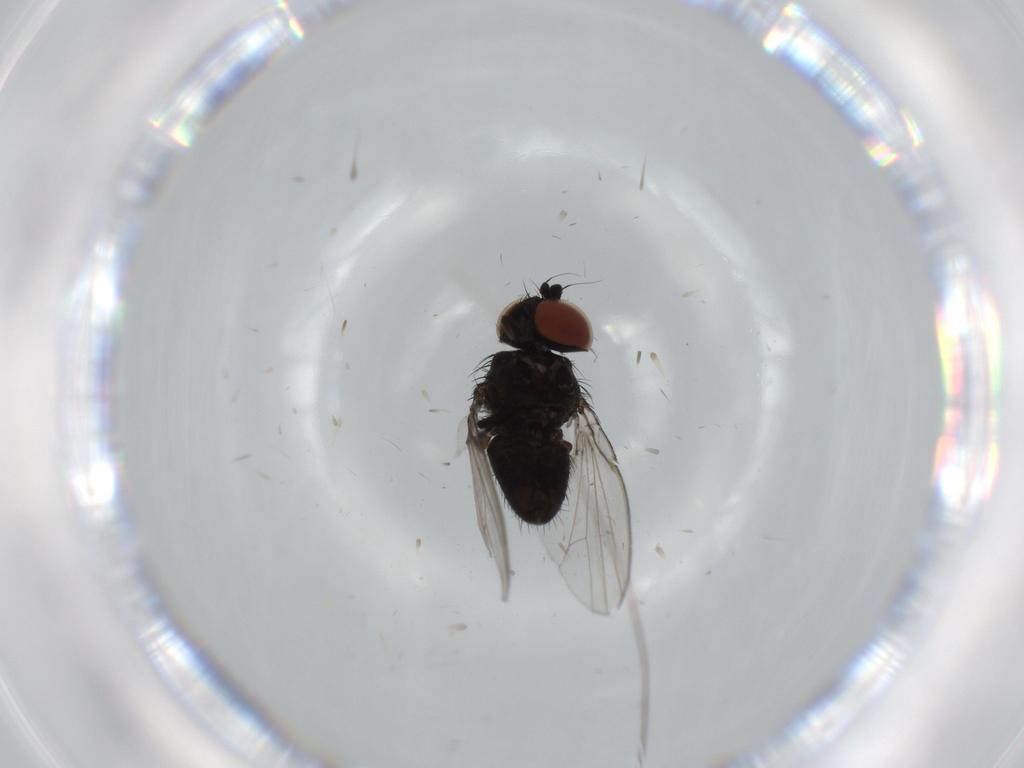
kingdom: Animalia
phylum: Arthropoda
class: Insecta
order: Diptera
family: Milichiidae
